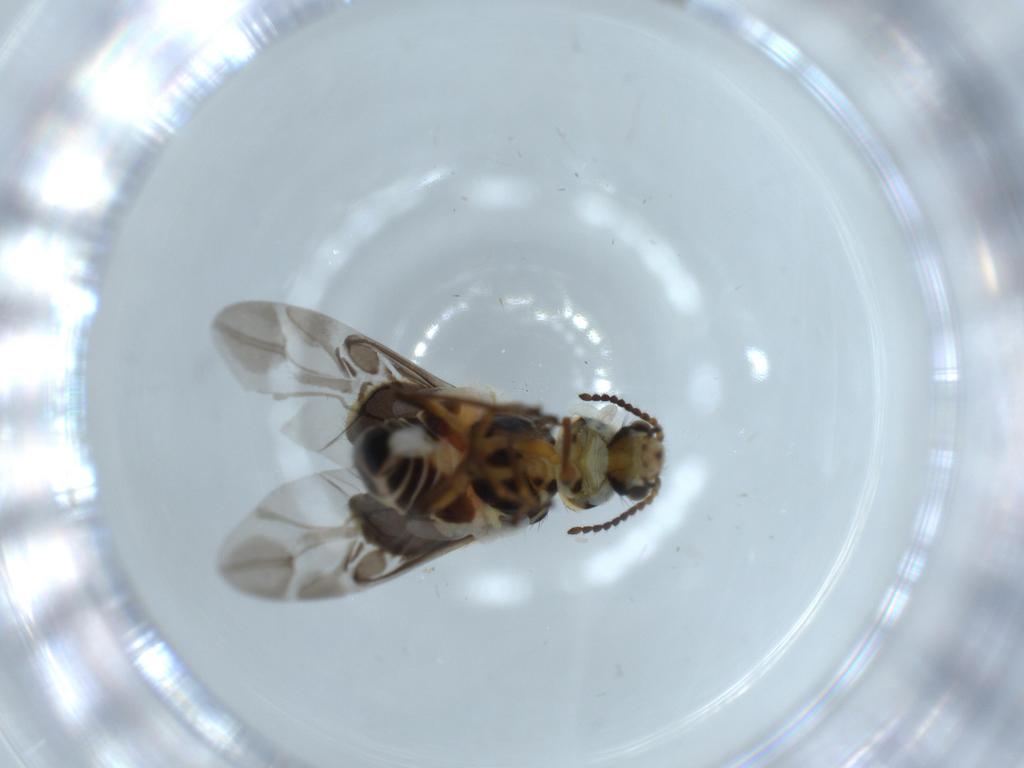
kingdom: Animalia
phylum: Arthropoda
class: Insecta
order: Coleoptera
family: Melyridae
